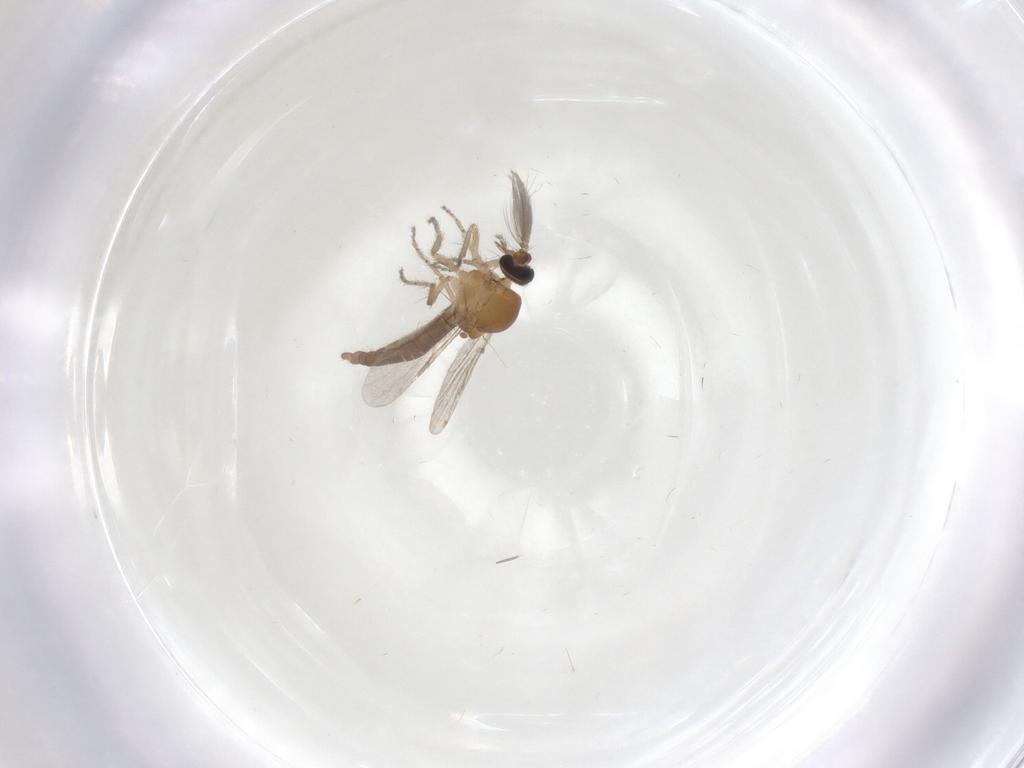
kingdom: Animalia
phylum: Arthropoda
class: Insecta
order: Diptera
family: Ceratopogonidae
